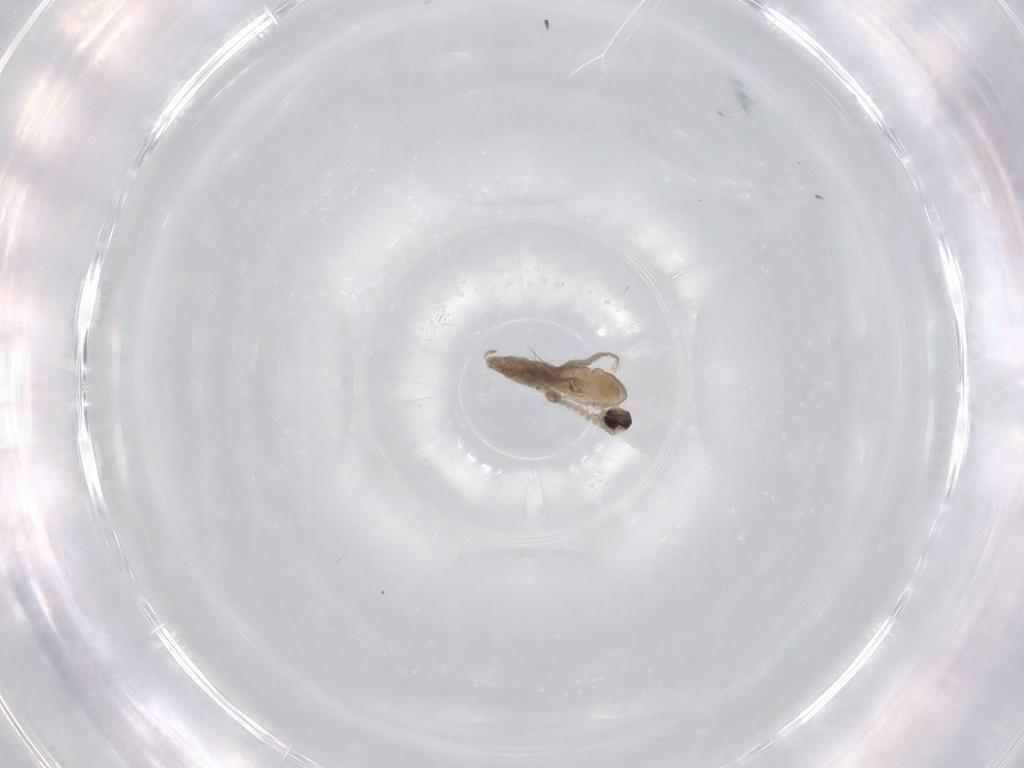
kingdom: Animalia
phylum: Arthropoda
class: Insecta
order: Diptera
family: Cecidomyiidae
